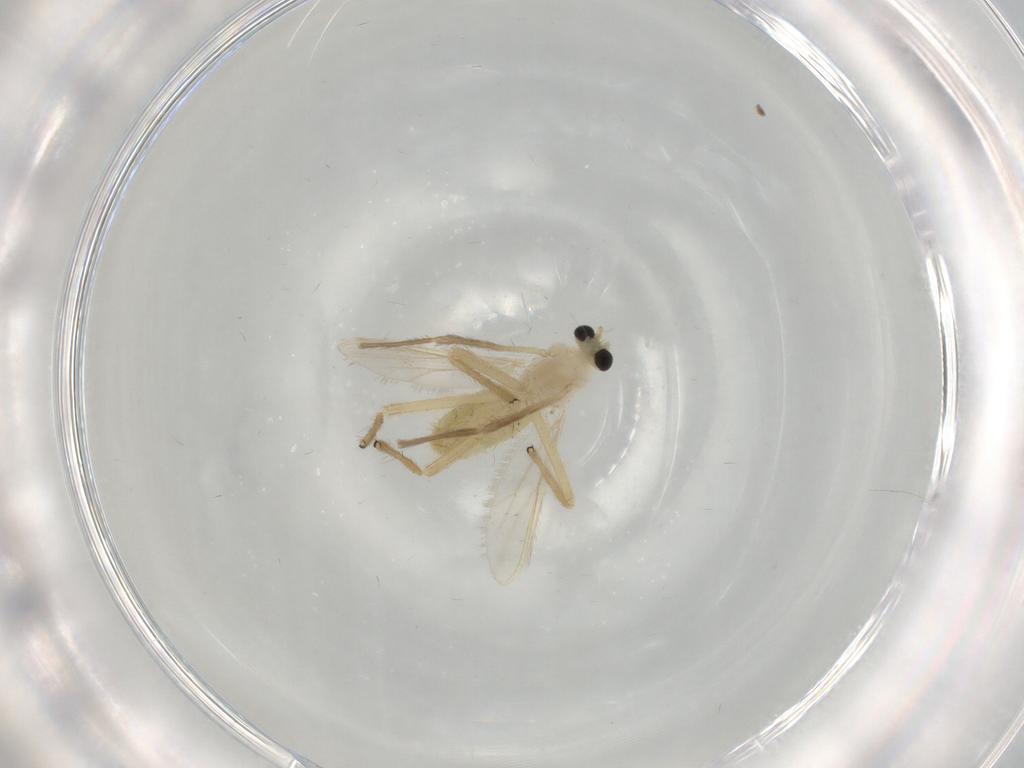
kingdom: Animalia
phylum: Arthropoda
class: Insecta
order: Diptera
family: Chironomidae
